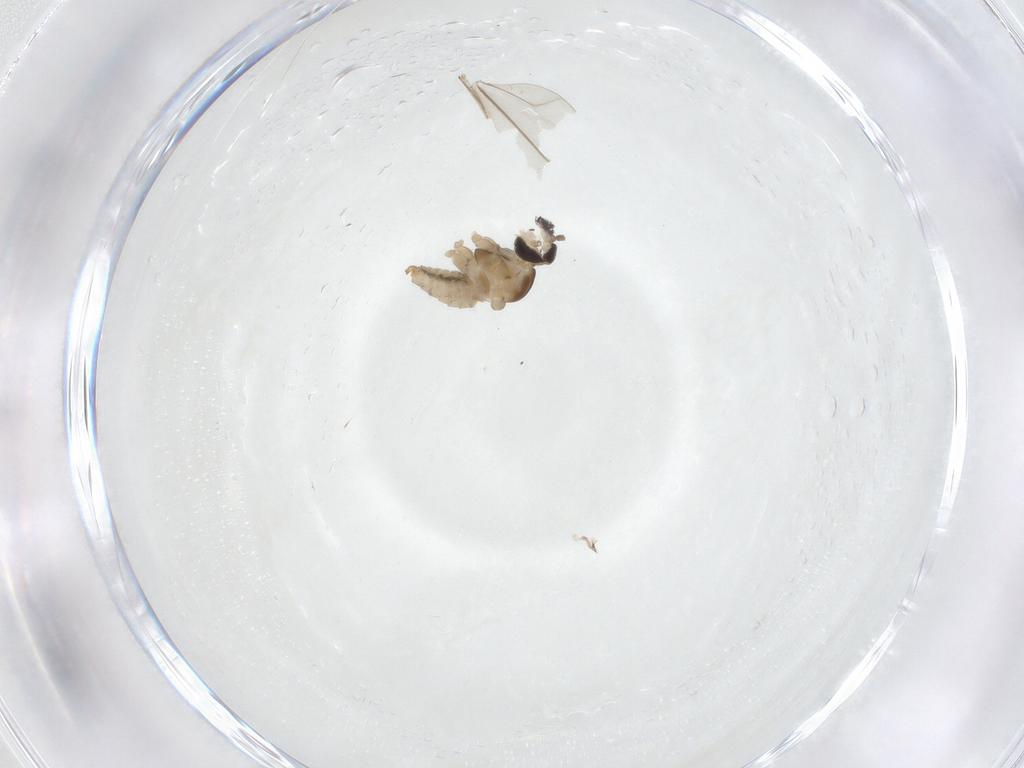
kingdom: Animalia
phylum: Arthropoda
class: Insecta
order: Diptera
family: Cecidomyiidae
